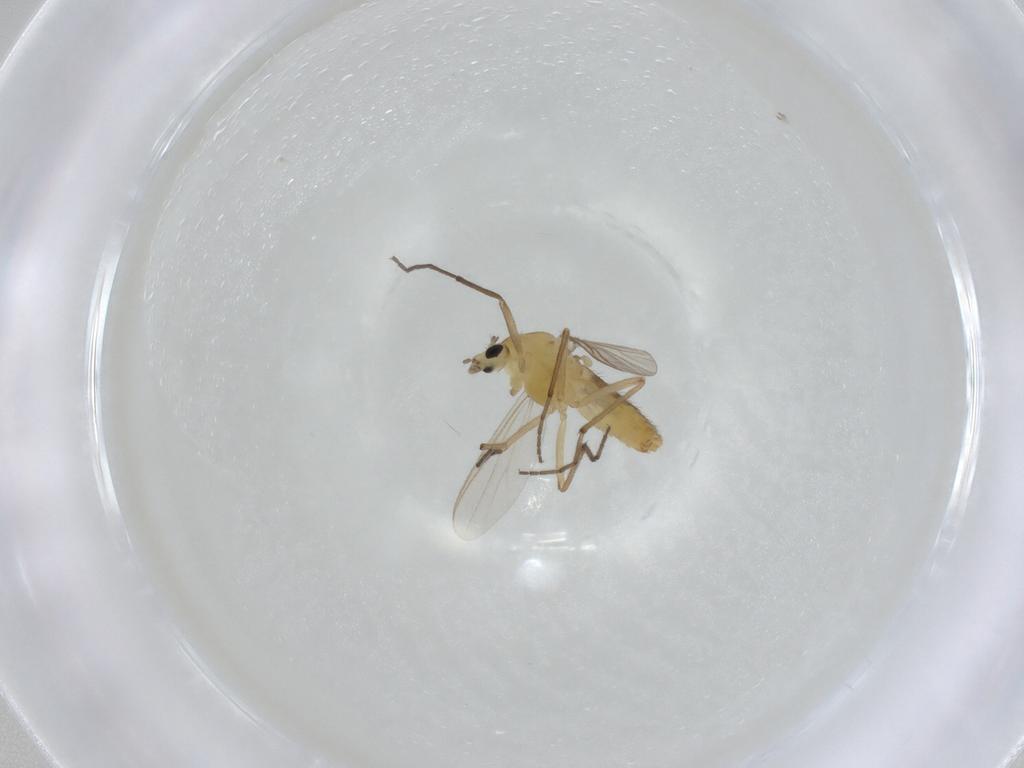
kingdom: Animalia
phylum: Arthropoda
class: Insecta
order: Diptera
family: Chironomidae
